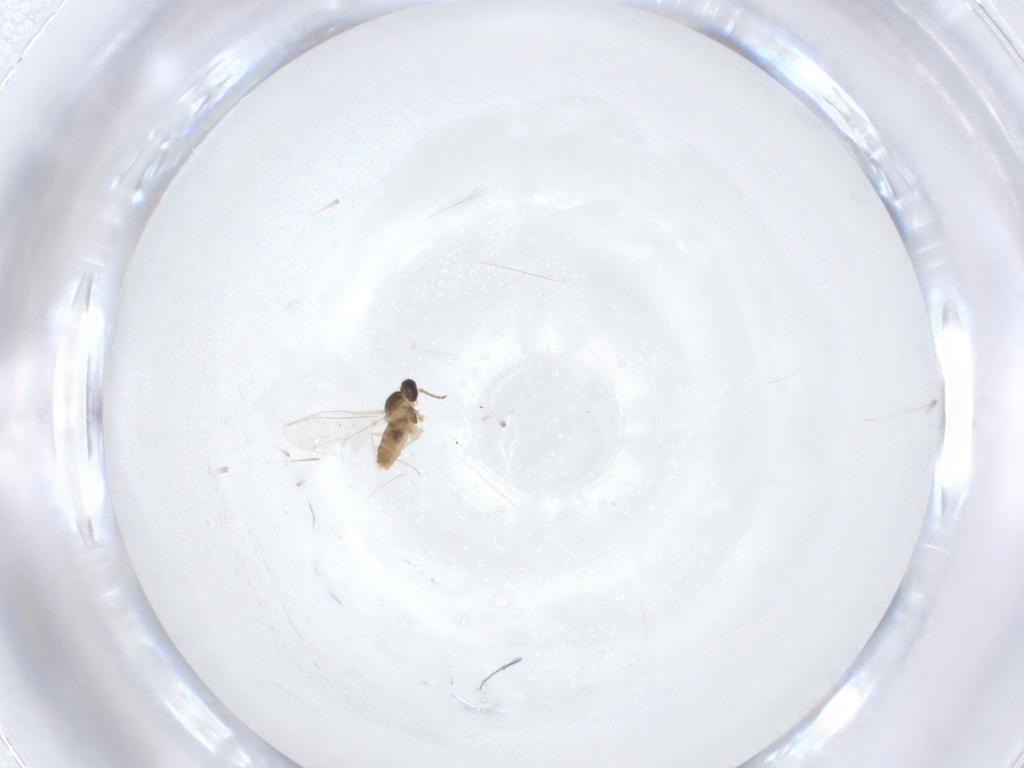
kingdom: Animalia
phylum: Arthropoda
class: Insecta
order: Diptera
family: Cecidomyiidae
